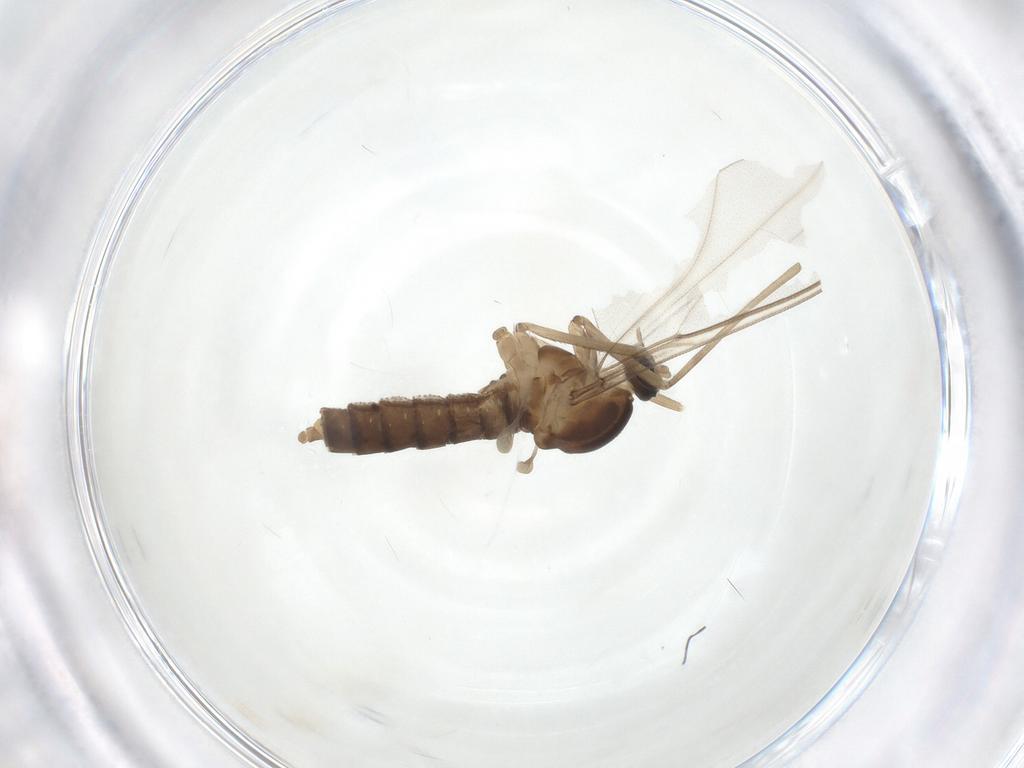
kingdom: Animalia
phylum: Arthropoda
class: Insecta
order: Diptera
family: Cecidomyiidae
